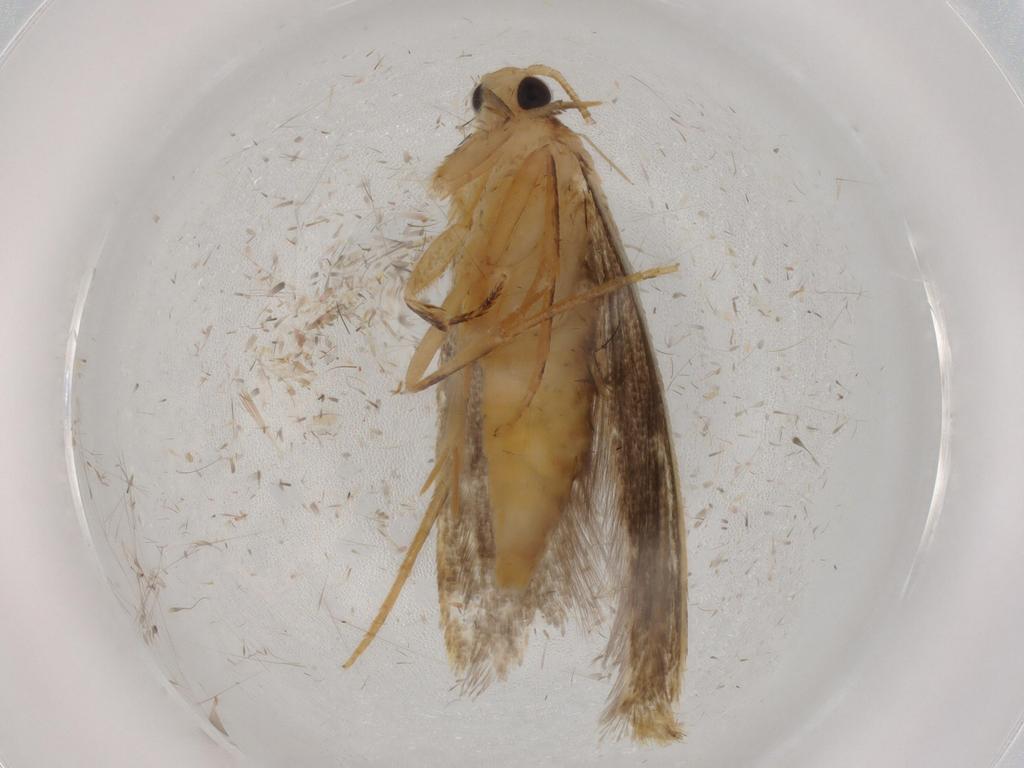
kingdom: Animalia
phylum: Arthropoda
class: Insecta
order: Lepidoptera
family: Tineidae
